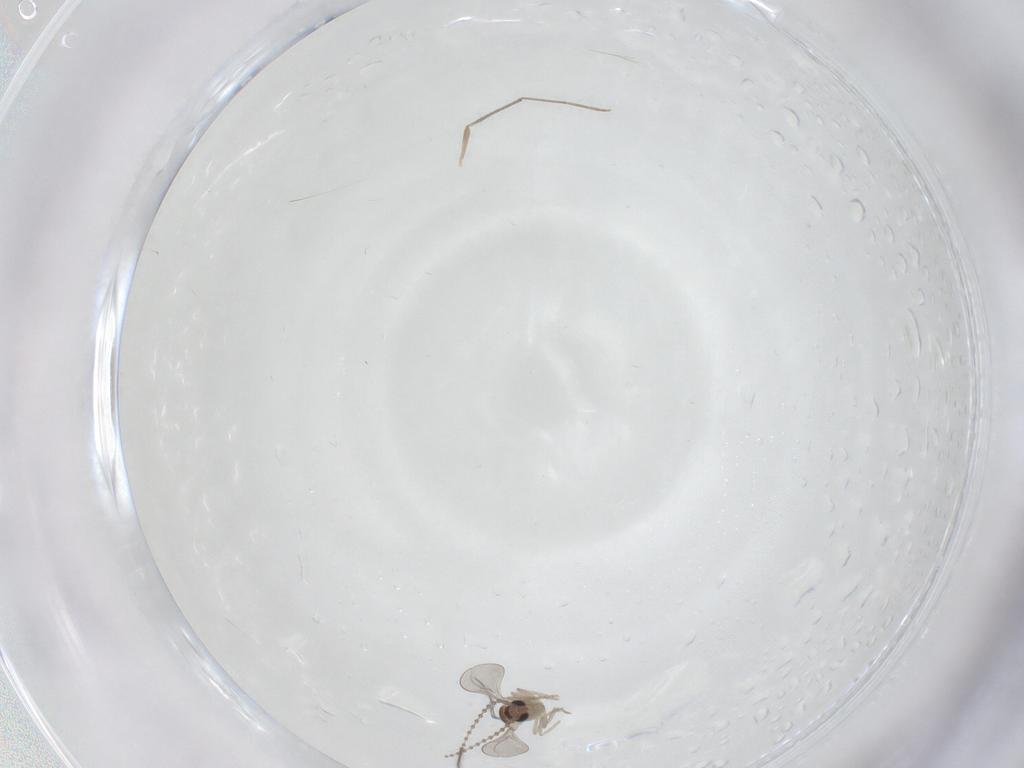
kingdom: Animalia
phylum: Arthropoda
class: Insecta
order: Diptera
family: Limoniidae
